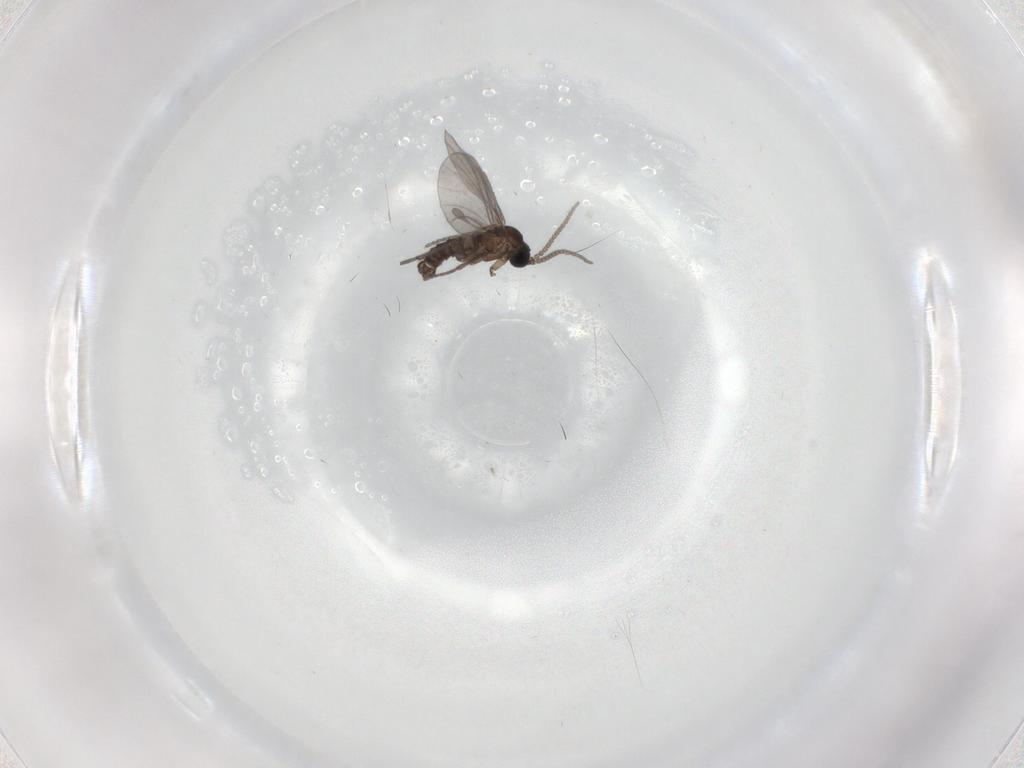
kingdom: Animalia
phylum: Arthropoda
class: Insecta
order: Diptera
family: Sciaridae
